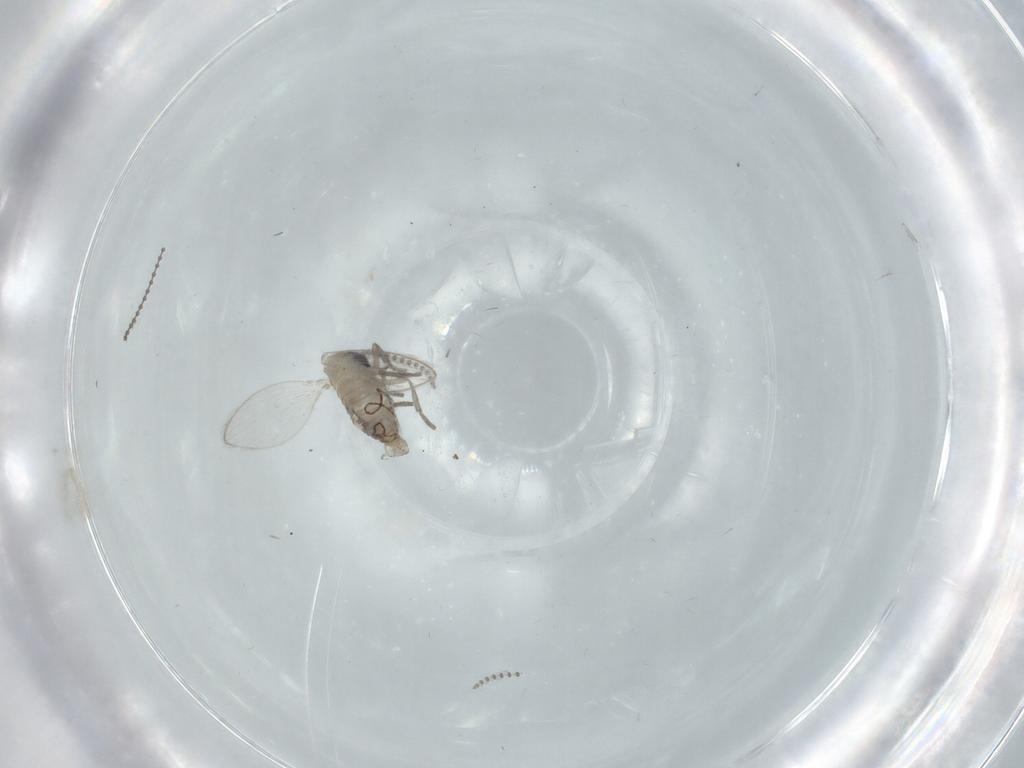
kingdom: Animalia
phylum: Arthropoda
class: Insecta
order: Diptera
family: Psychodidae
